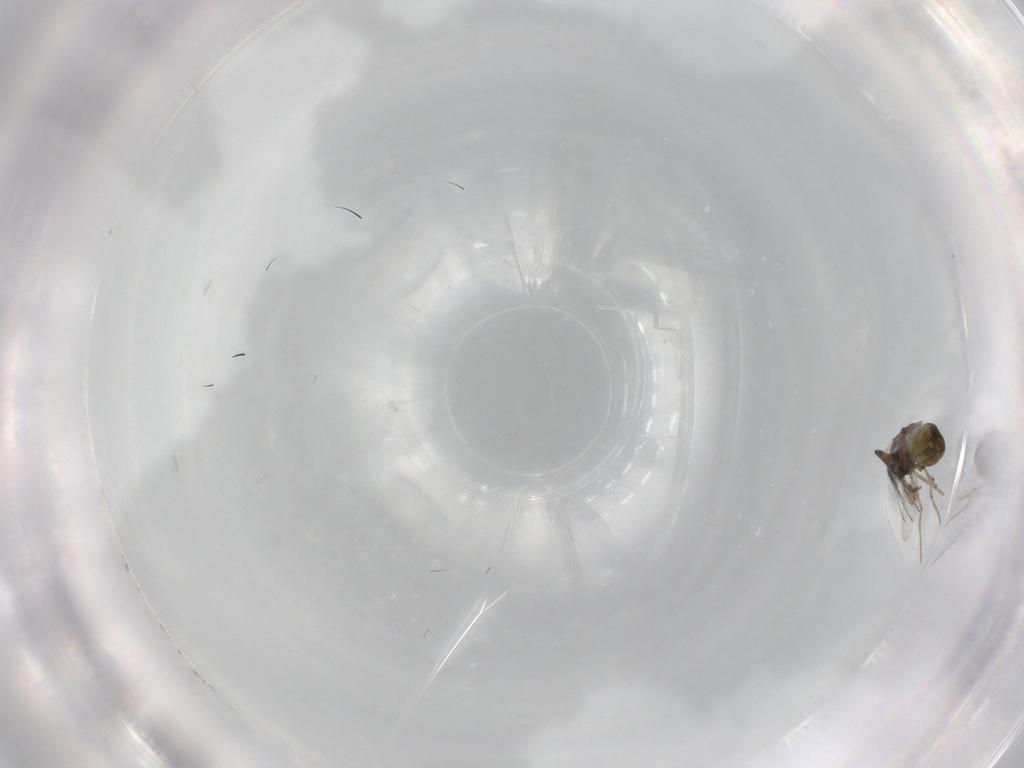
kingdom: Animalia
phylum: Arthropoda
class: Insecta
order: Diptera
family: Ceratopogonidae
